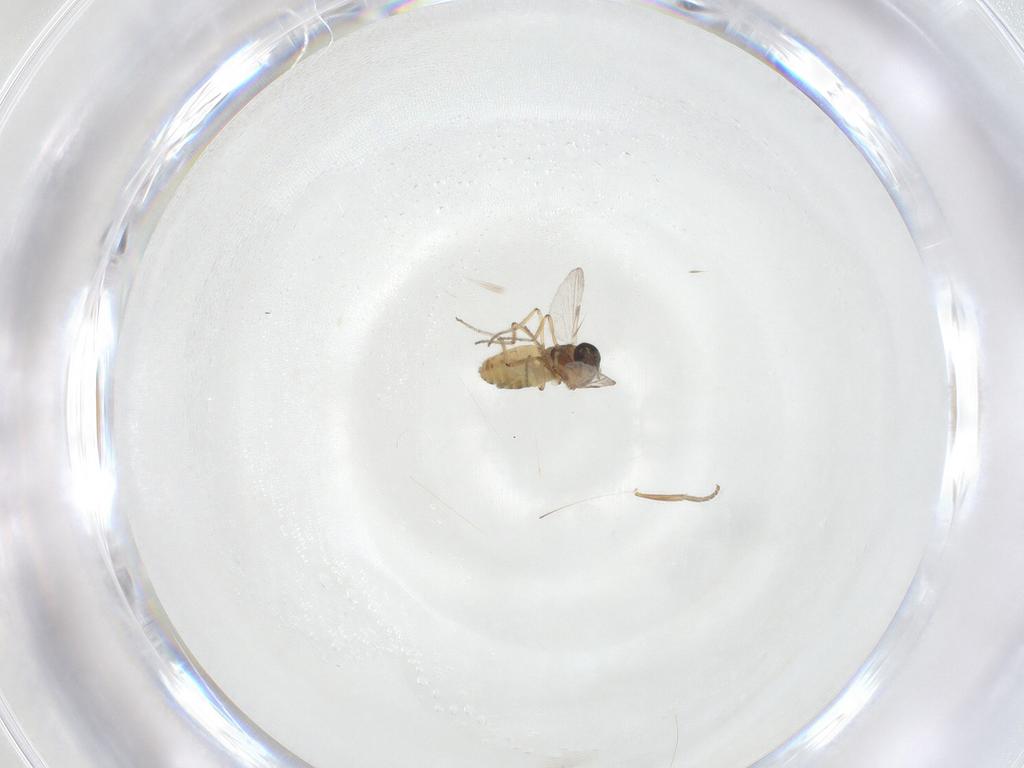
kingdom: Animalia
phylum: Arthropoda
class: Insecta
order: Diptera
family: Ceratopogonidae
